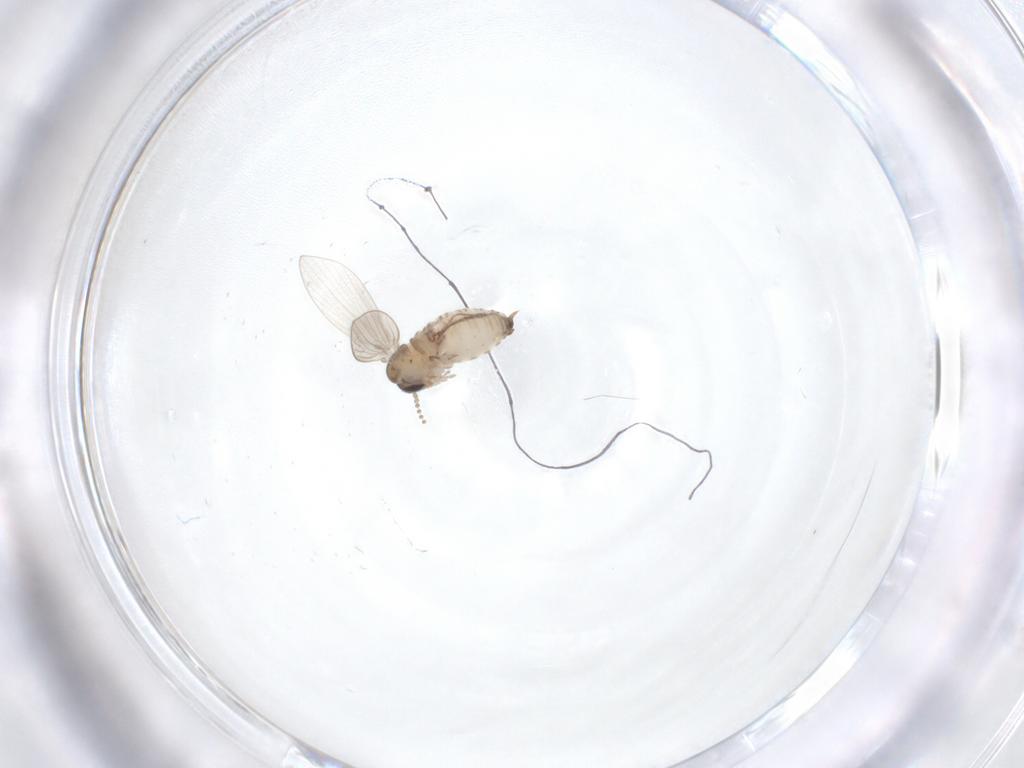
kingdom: Animalia
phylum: Arthropoda
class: Insecta
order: Diptera
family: Psychodidae
